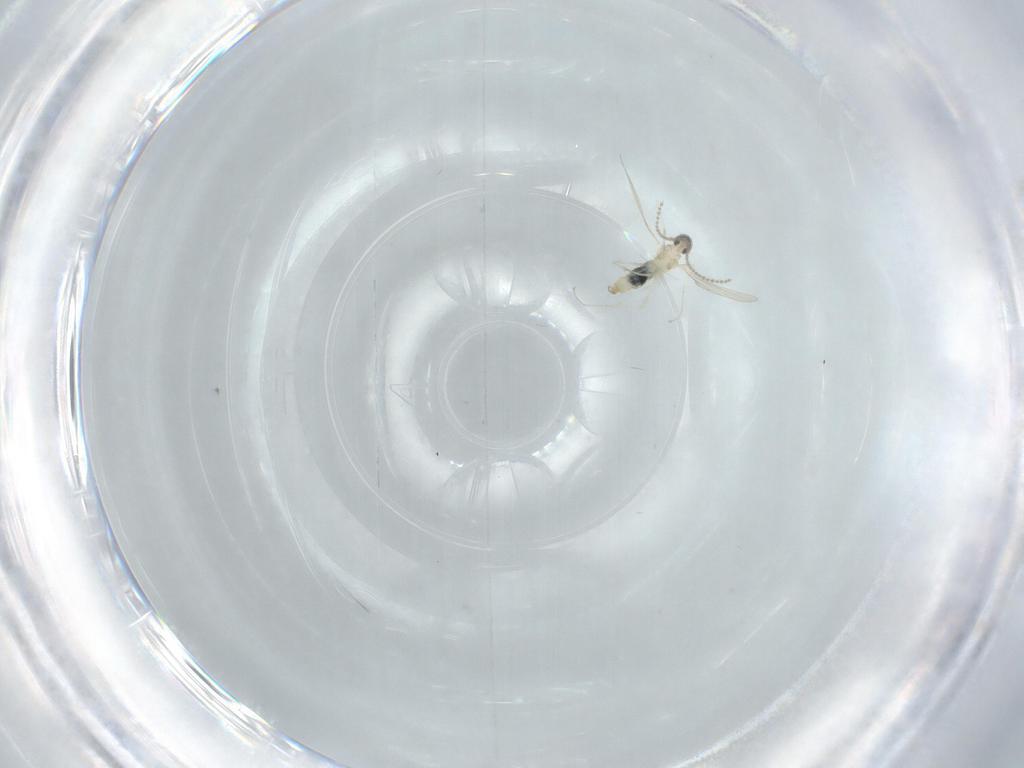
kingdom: Animalia
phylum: Arthropoda
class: Insecta
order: Diptera
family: Cecidomyiidae
